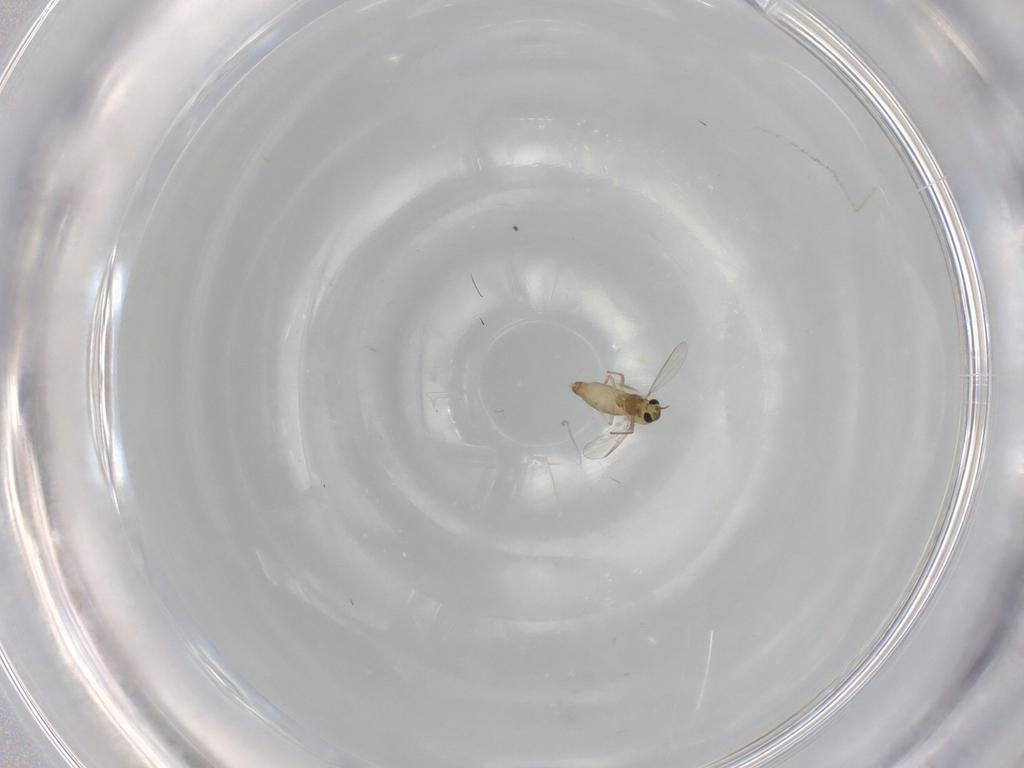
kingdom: Animalia
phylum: Arthropoda
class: Insecta
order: Diptera
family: Chironomidae
